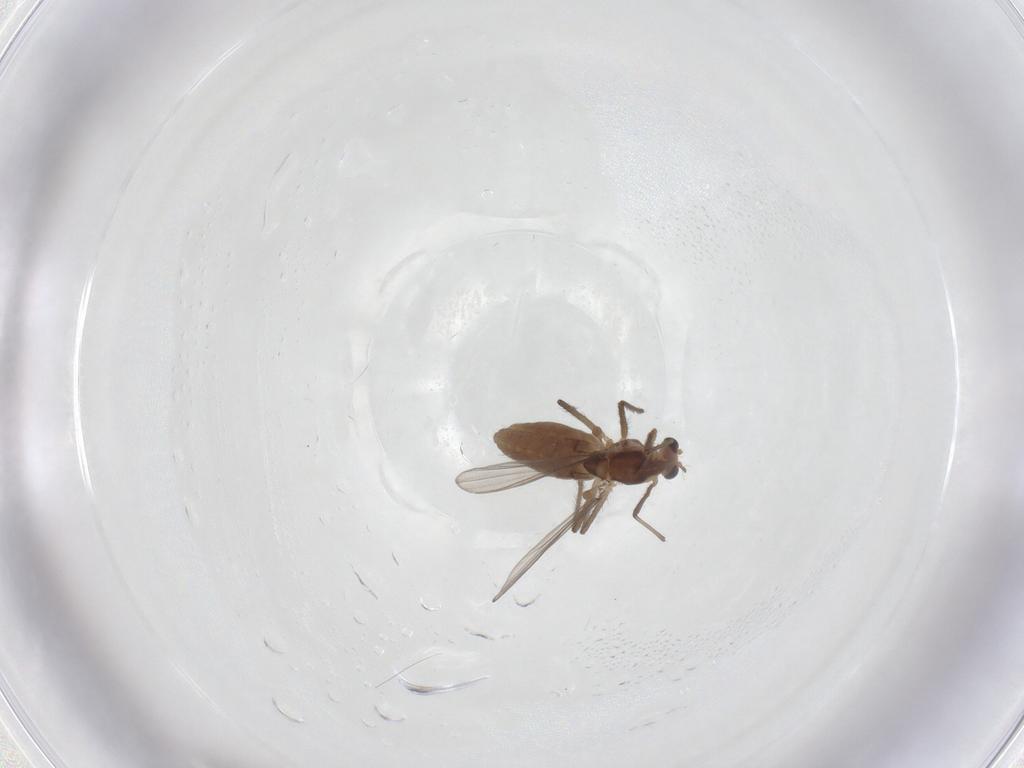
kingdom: Animalia
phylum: Arthropoda
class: Insecta
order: Diptera
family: Chironomidae
